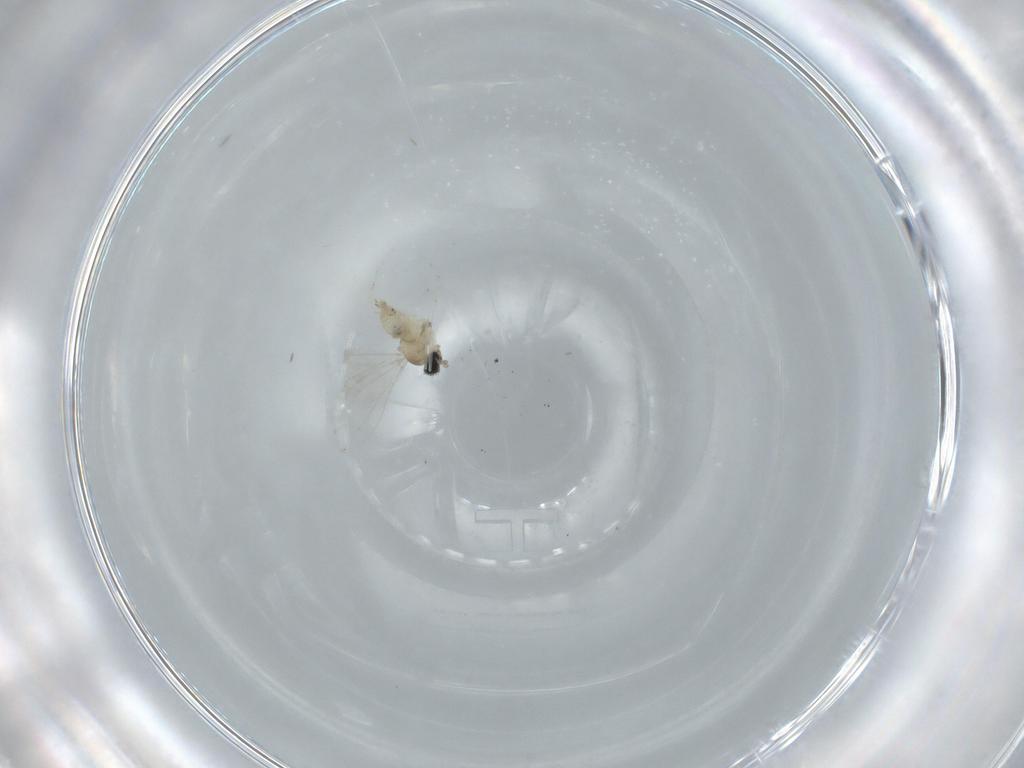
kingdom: Animalia
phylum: Arthropoda
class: Insecta
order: Diptera
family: Cecidomyiidae
